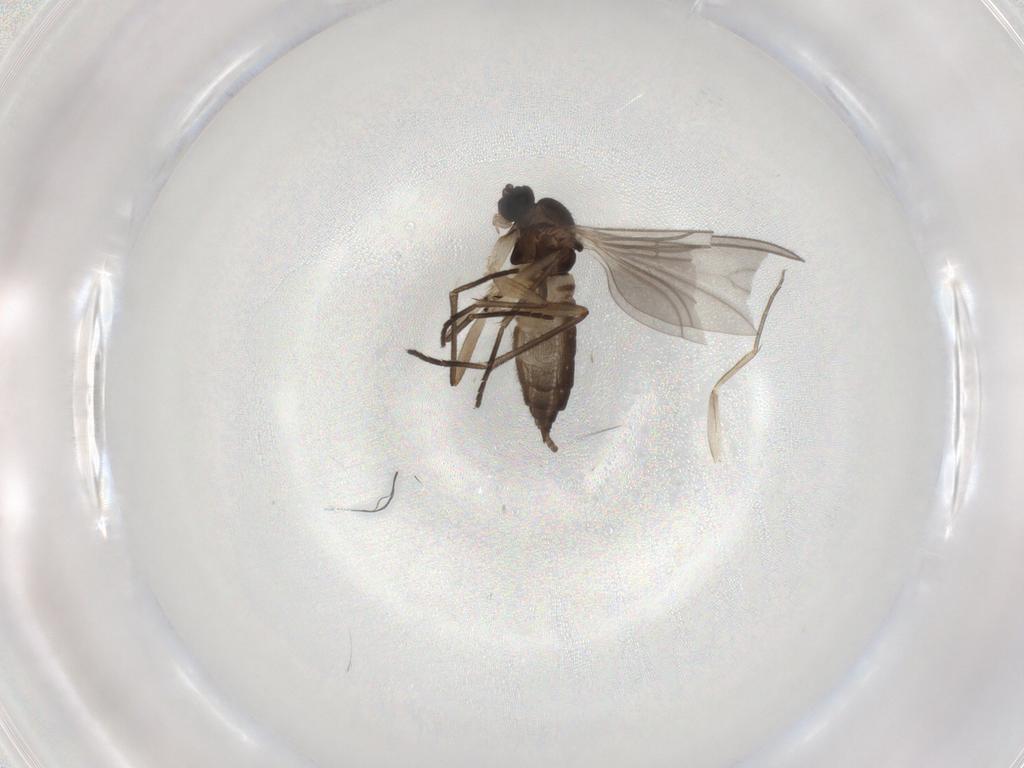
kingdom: Animalia
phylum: Arthropoda
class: Insecta
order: Diptera
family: Sciaridae
